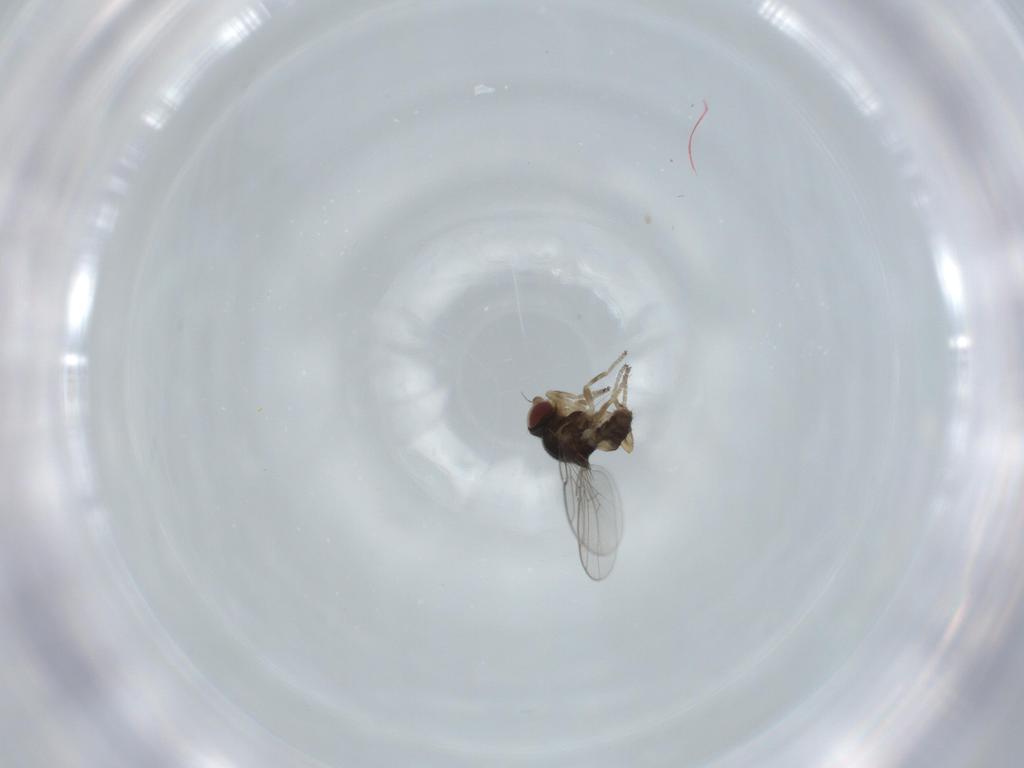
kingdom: Animalia
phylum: Arthropoda
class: Insecta
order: Diptera
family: Chloropidae
